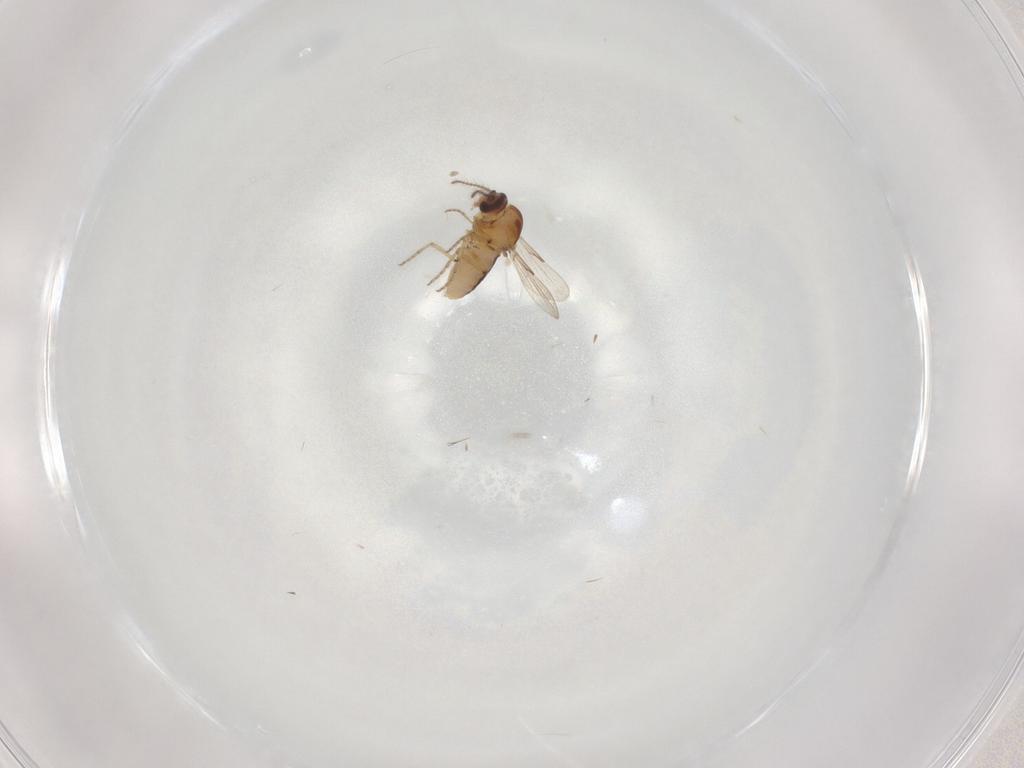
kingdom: Animalia
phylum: Arthropoda
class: Insecta
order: Diptera
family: Ceratopogonidae
